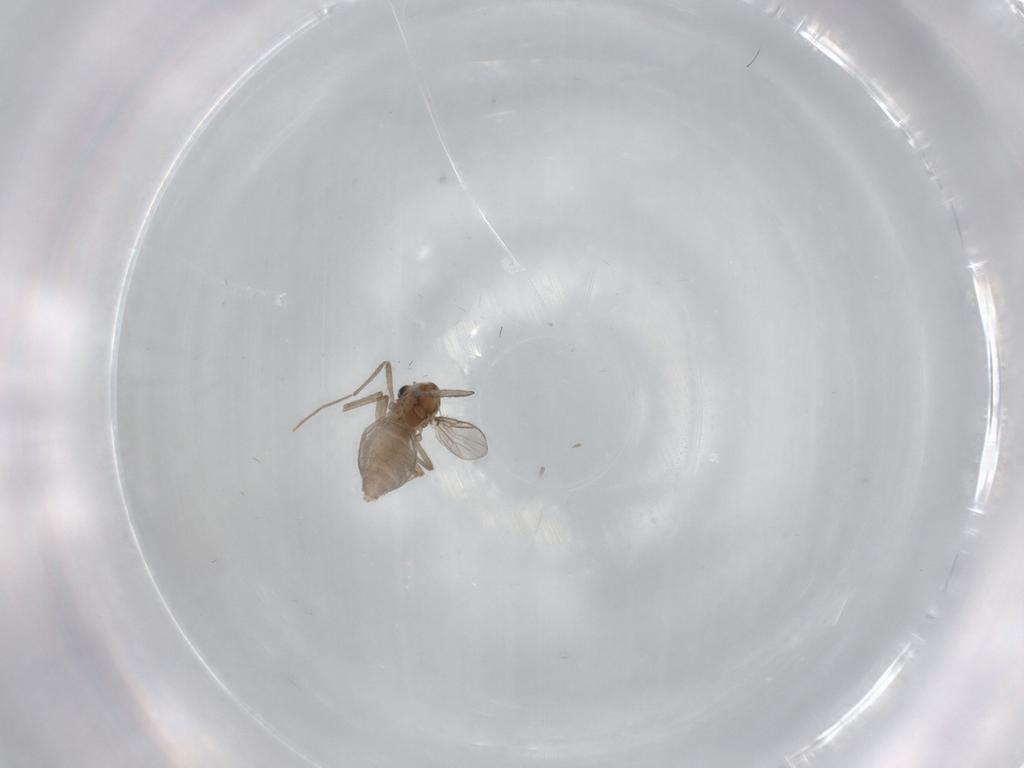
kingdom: Animalia
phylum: Arthropoda
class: Insecta
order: Diptera
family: Chironomidae
